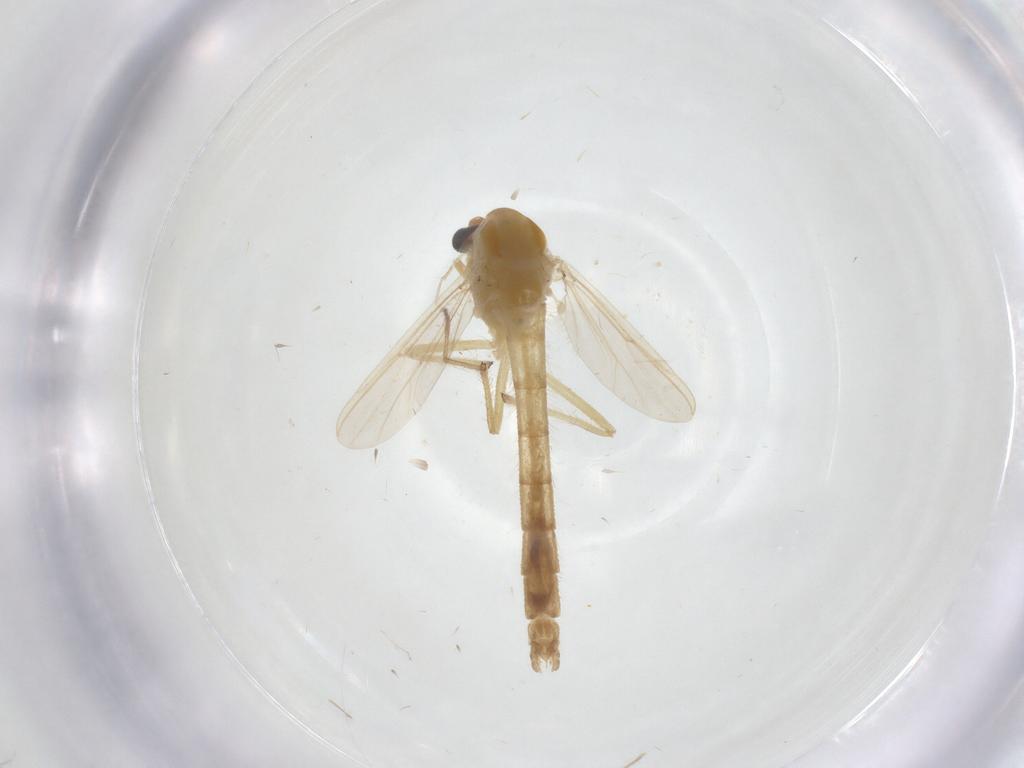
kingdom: Animalia
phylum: Arthropoda
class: Insecta
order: Diptera
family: Chironomidae
